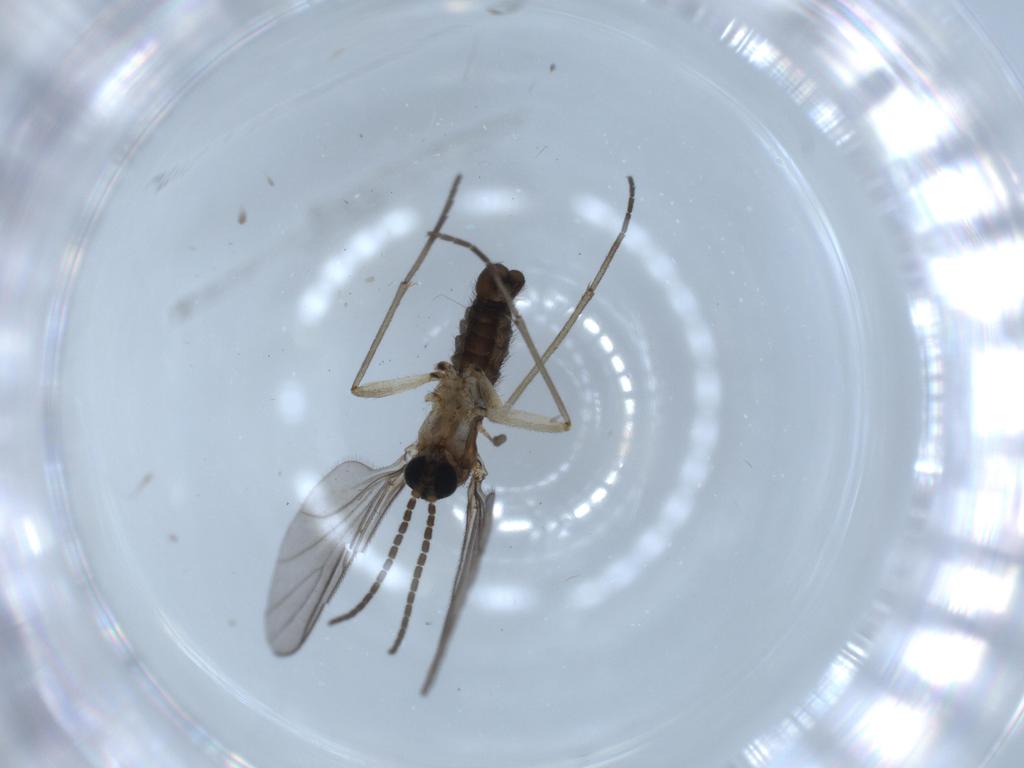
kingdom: Animalia
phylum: Arthropoda
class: Insecta
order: Diptera
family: Sciaridae
